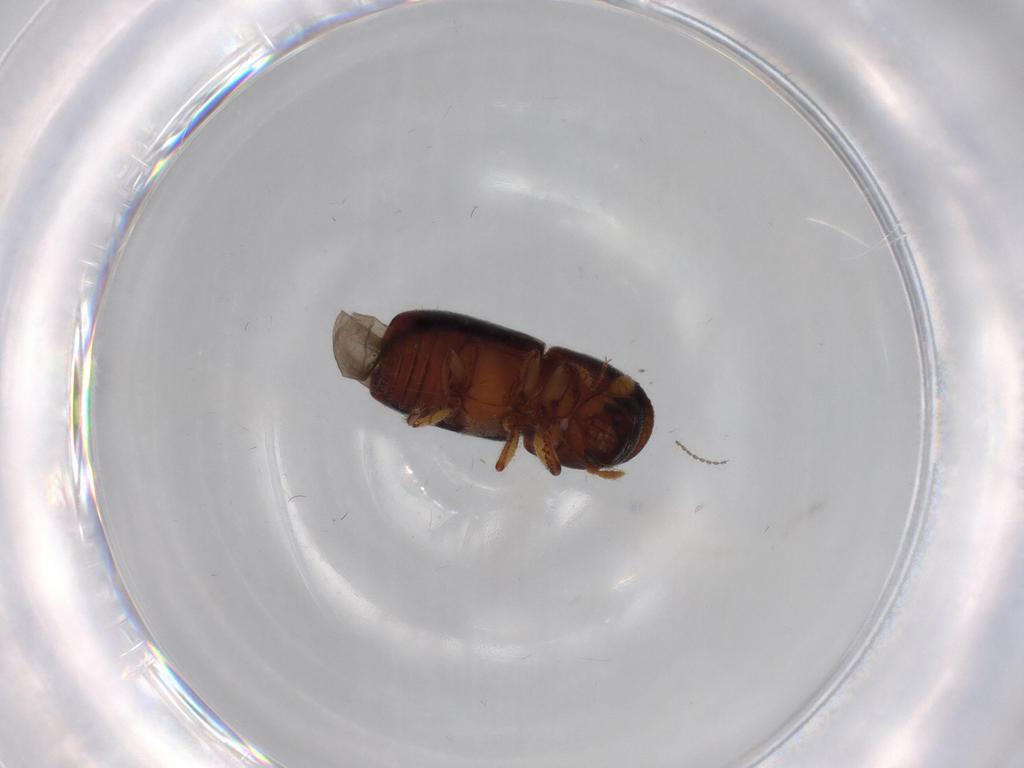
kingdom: Animalia
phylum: Arthropoda
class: Insecta
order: Coleoptera
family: Curculionidae
